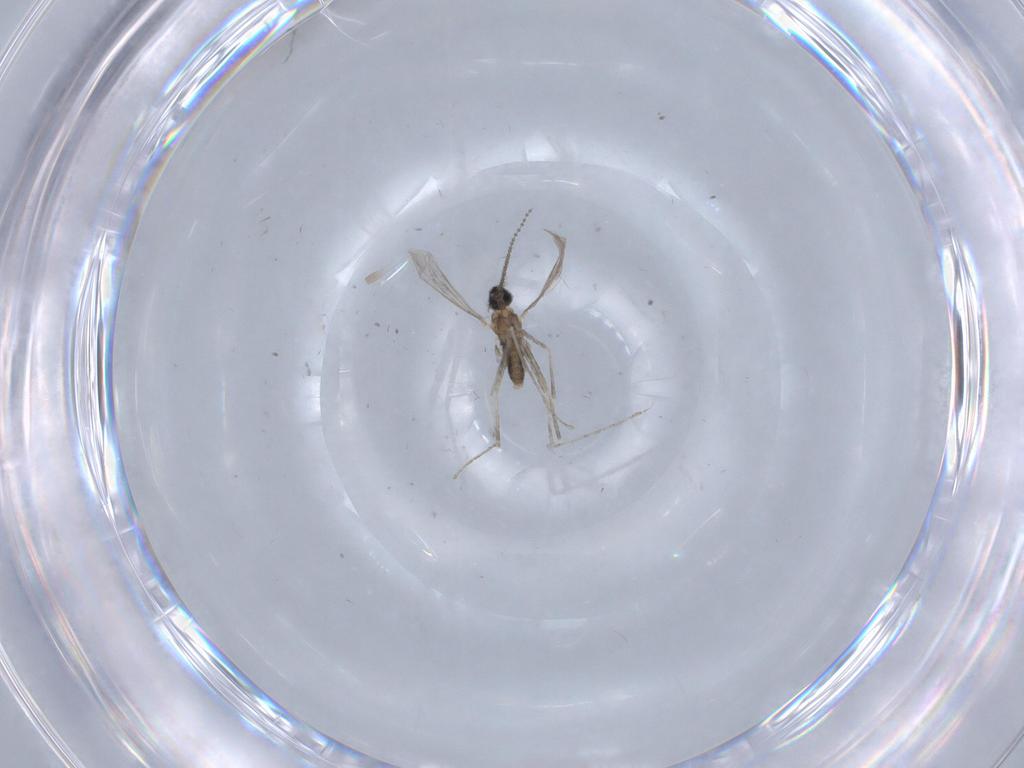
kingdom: Animalia
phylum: Arthropoda
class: Insecta
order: Diptera
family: Cecidomyiidae
